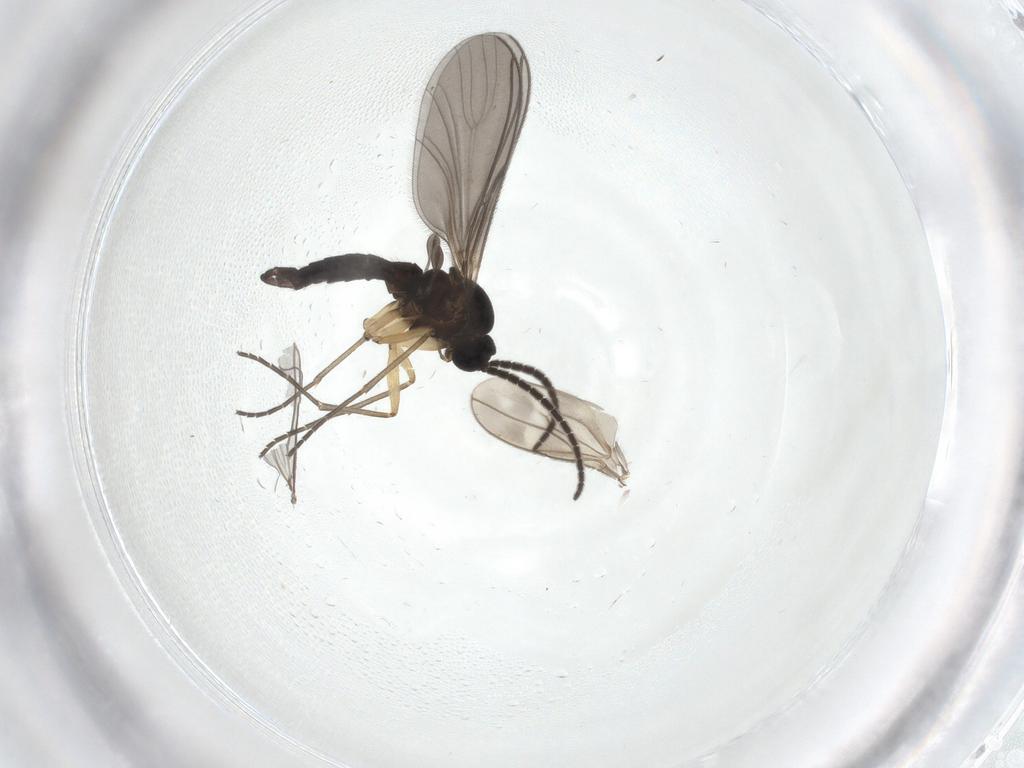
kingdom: Animalia
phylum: Arthropoda
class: Insecta
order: Diptera
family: Sciaridae
